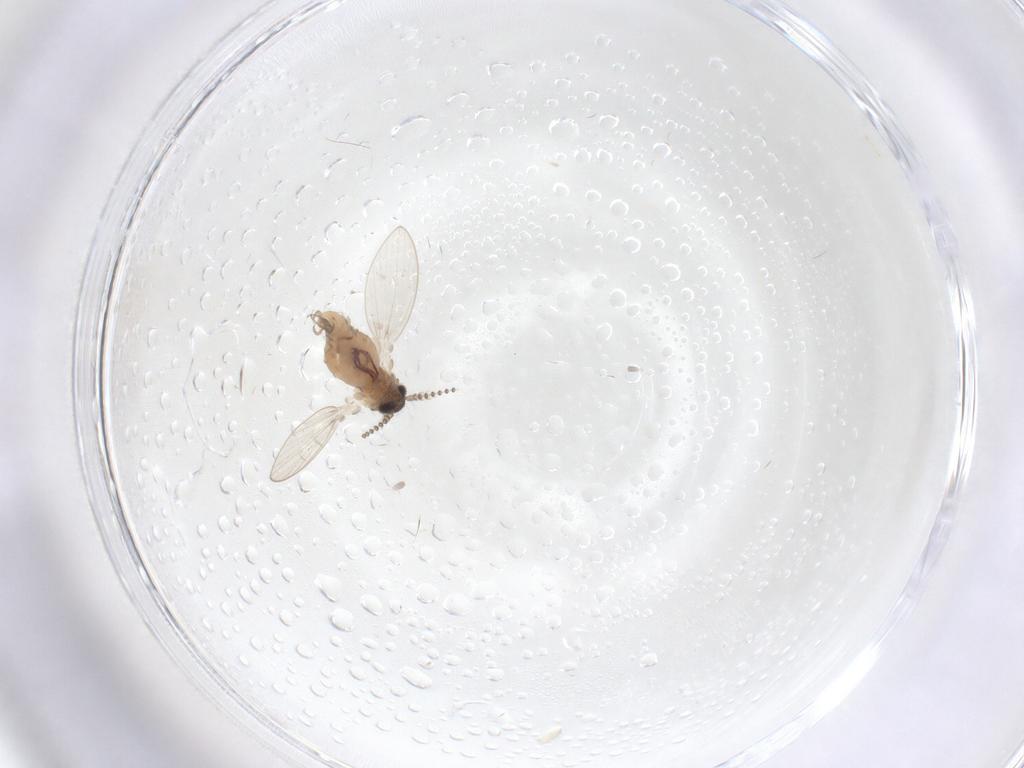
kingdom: Animalia
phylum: Arthropoda
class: Insecta
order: Diptera
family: Psychodidae
